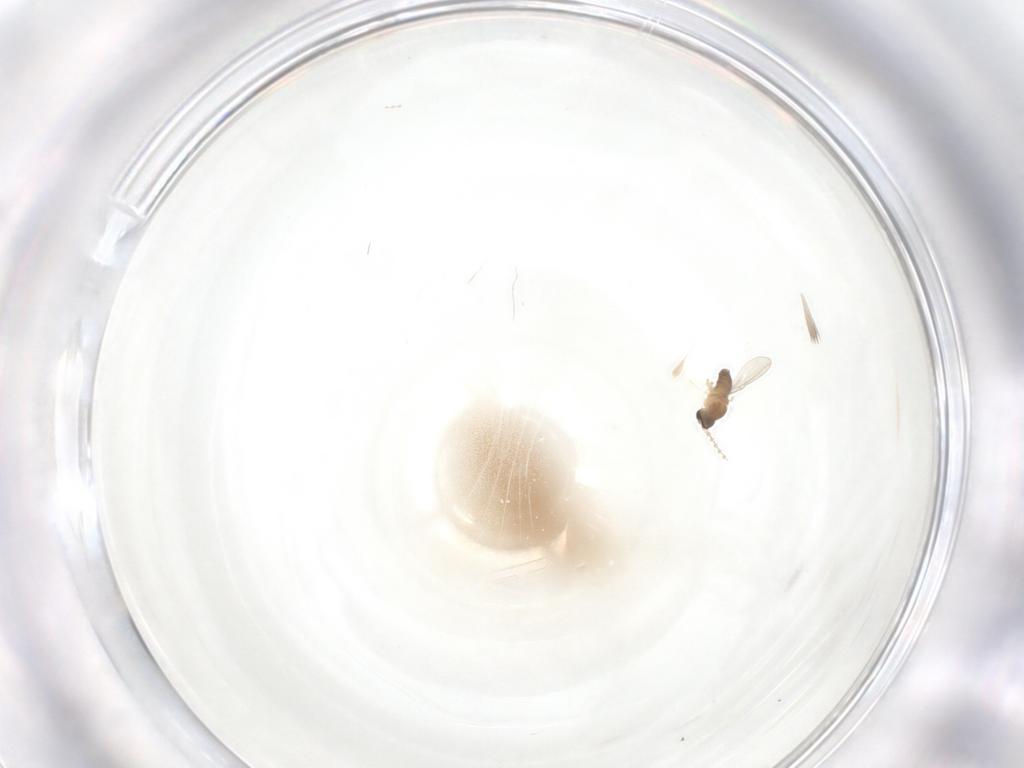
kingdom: Animalia
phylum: Arthropoda
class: Insecta
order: Diptera
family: Cecidomyiidae
